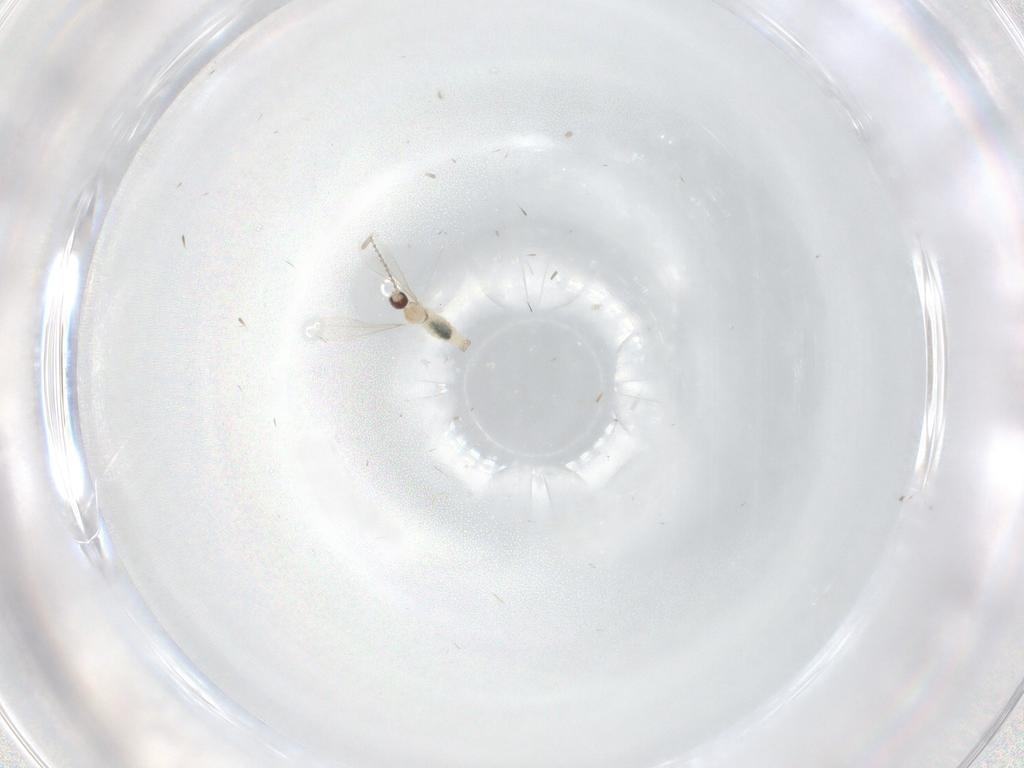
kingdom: Animalia
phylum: Arthropoda
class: Insecta
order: Diptera
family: Psychodidae
